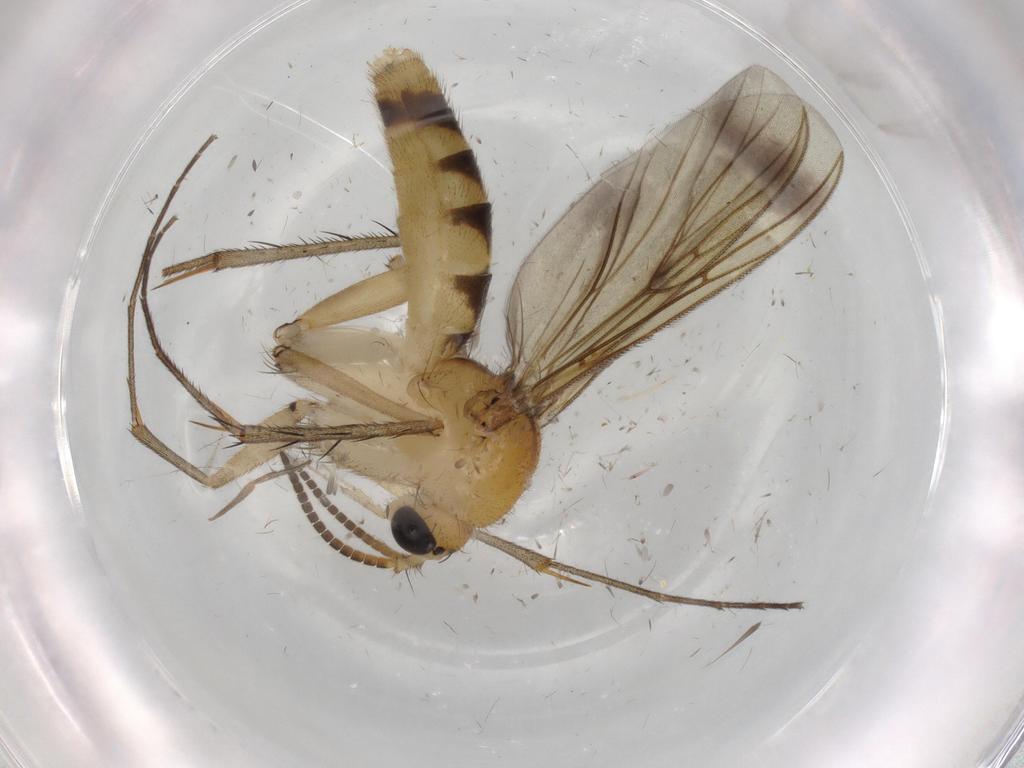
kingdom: Animalia
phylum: Arthropoda
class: Insecta
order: Diptera
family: Mycetophilidae
